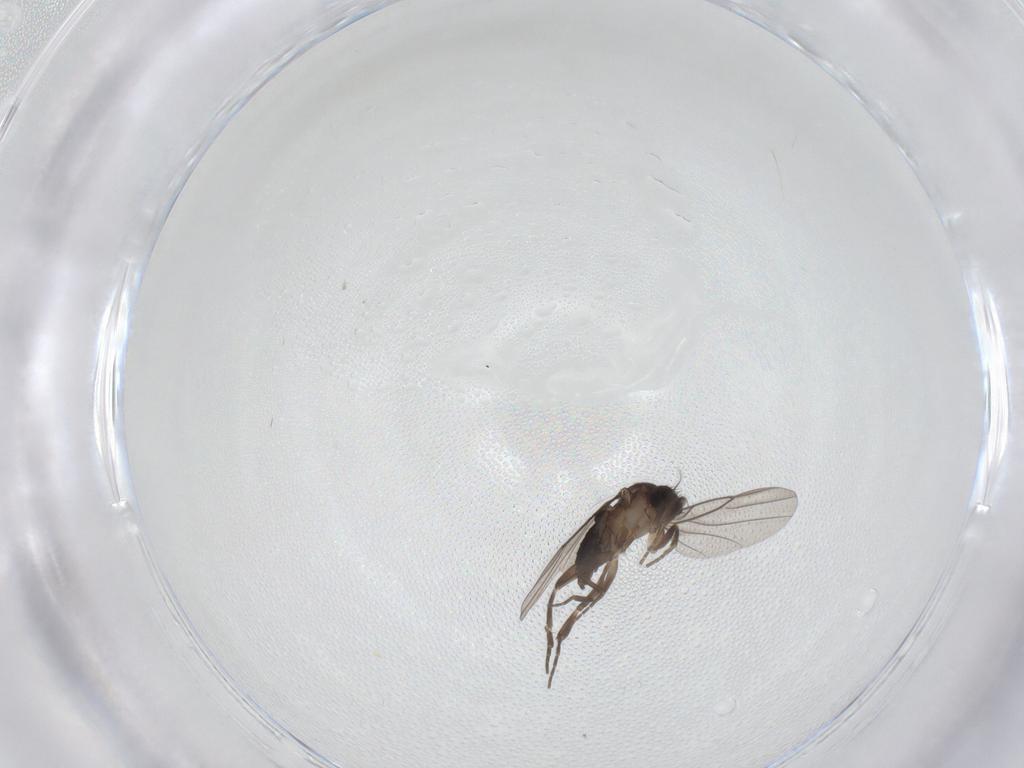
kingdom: Animalia
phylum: Arthropoda
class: Insecta
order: Diptera
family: Phoridae
